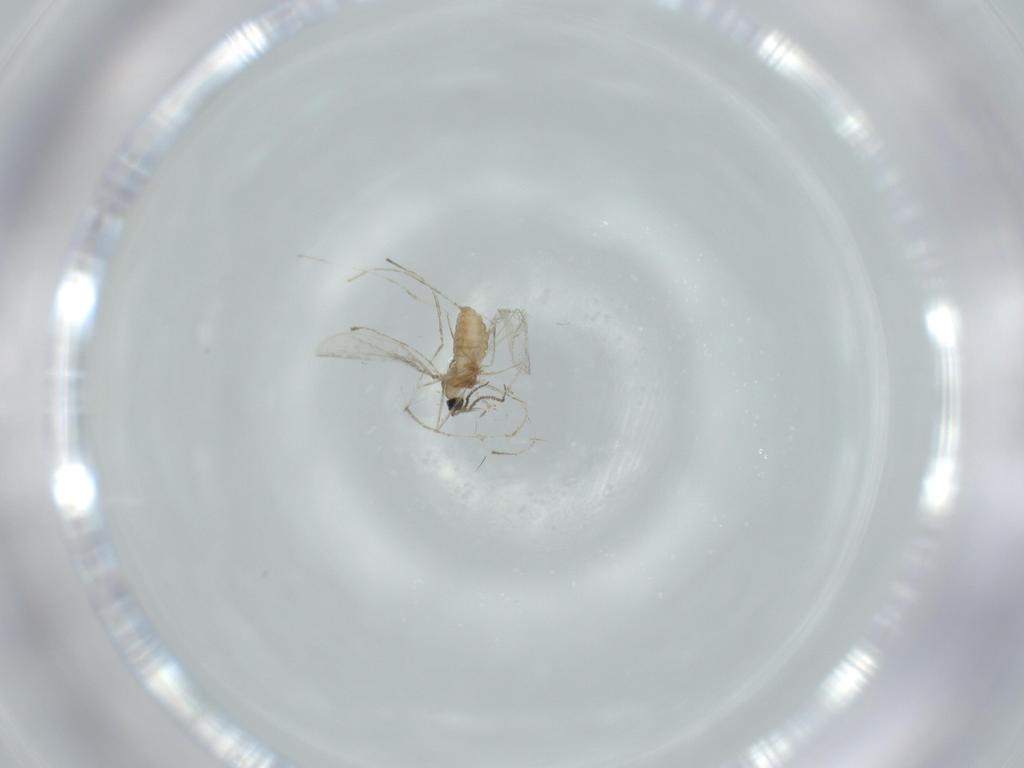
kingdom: Animalia
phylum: Arthropoda
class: Insecta
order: Diptera
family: Cecidomyiidae
